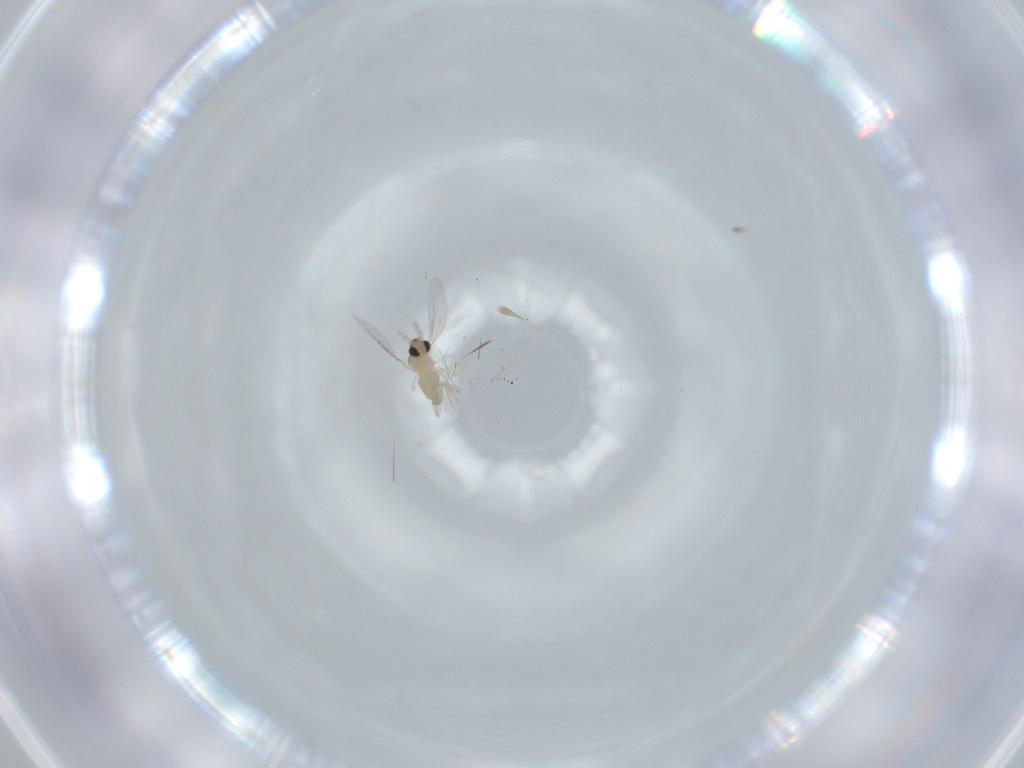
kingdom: Animalia
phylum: Arthropoda
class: Insecta
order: Diptera
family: Cecidomyiidae
